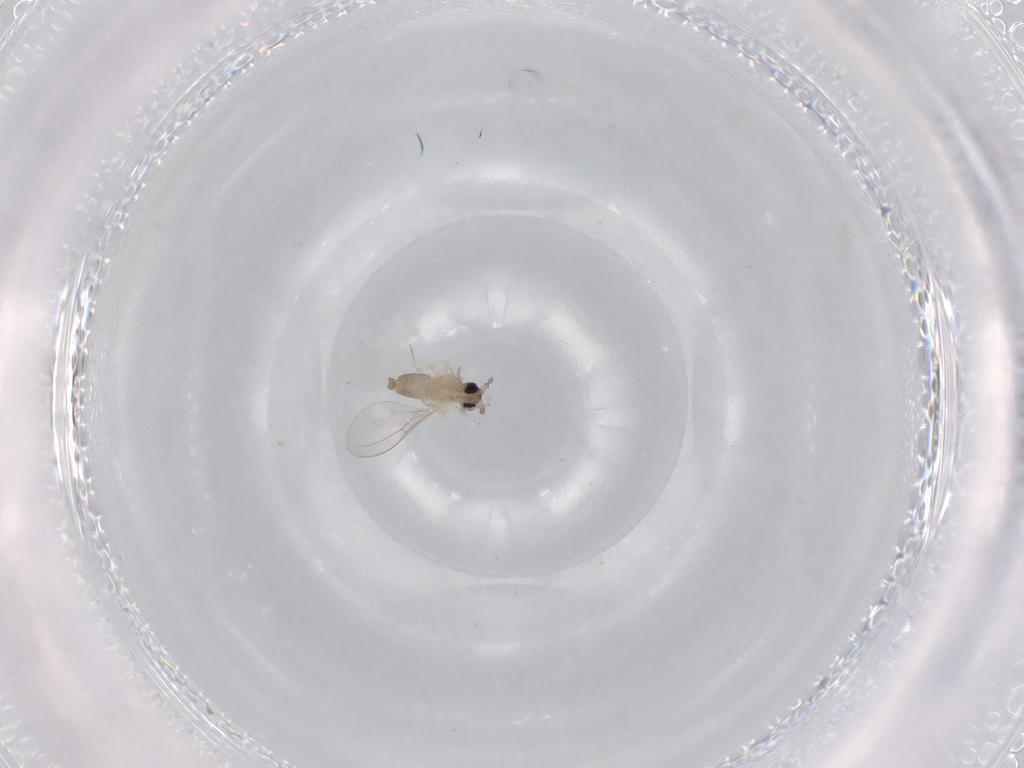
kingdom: Animalia
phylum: Arthropoda
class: Insecta
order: Diptera
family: Cecidomyiidae
